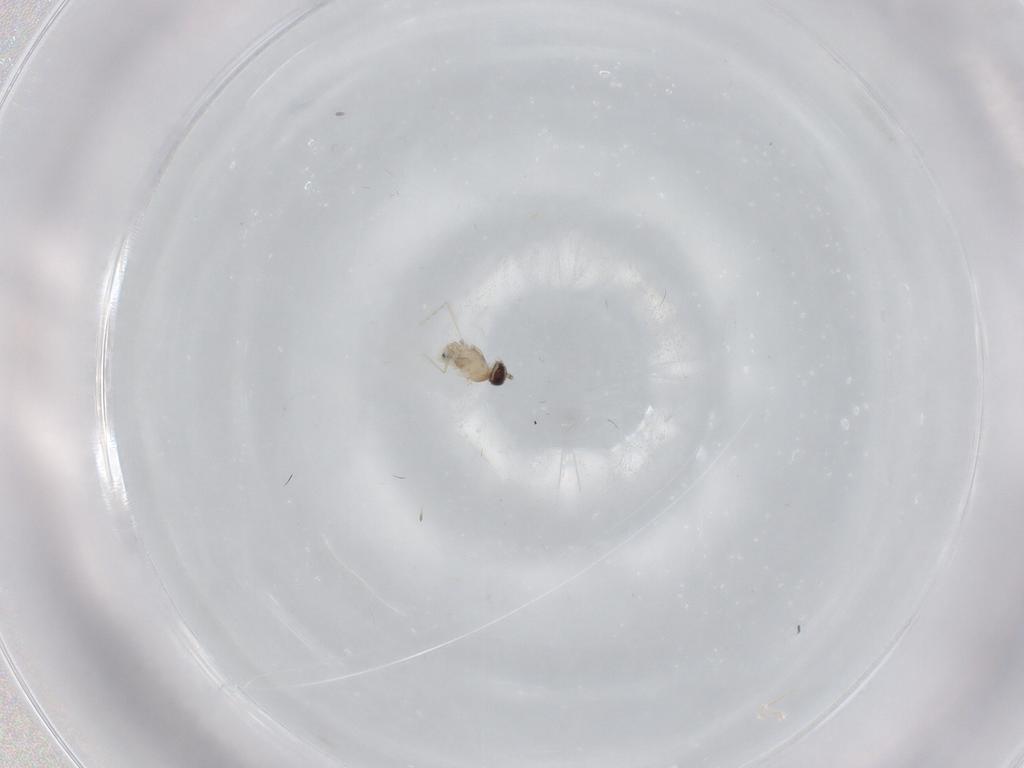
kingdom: Animalia
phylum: Arthropoda
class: Insecta
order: Diptera
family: Cecidomyiidae
